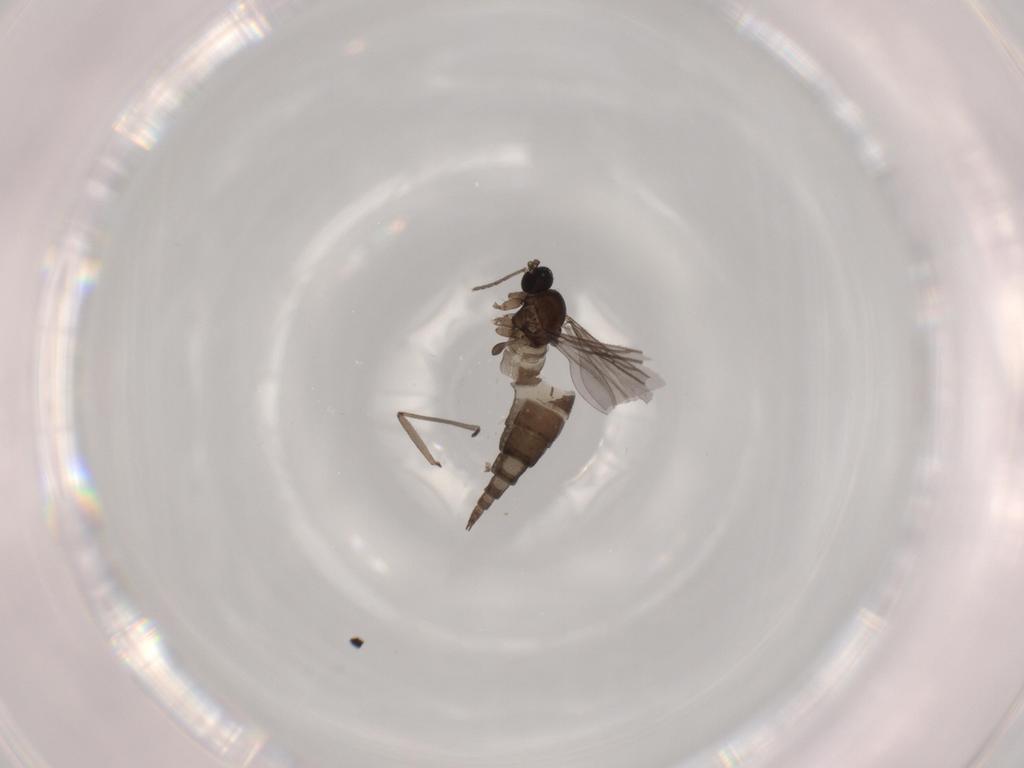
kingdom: Animalia
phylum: Arthropoda
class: Insecta
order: Diptera
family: Sciaridae
